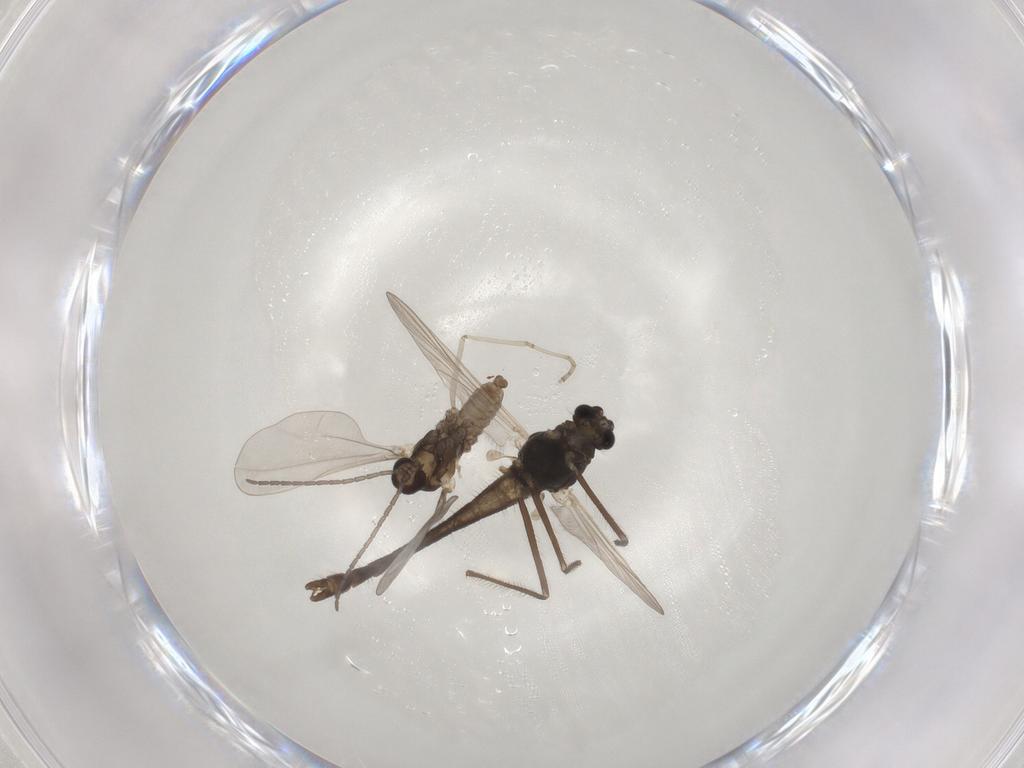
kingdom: Animalia
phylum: Arthropoda
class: Insecta
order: Diptera
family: Chironomidae
